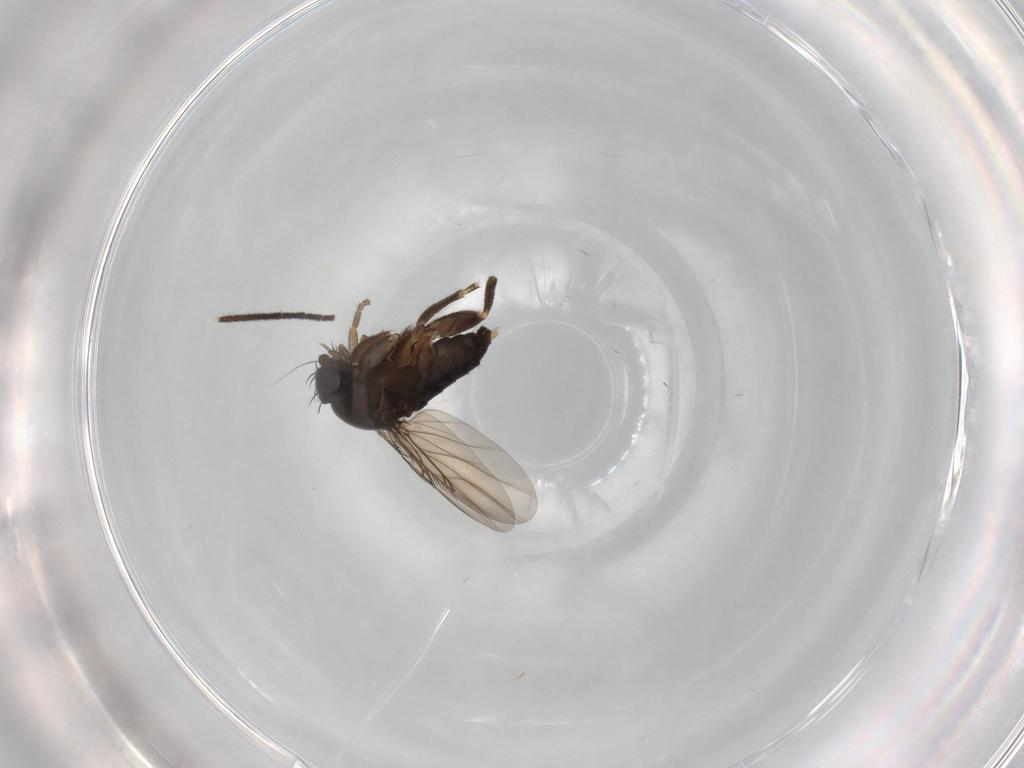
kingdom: Animalia
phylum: Arthropoda
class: Insecta
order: Diptera
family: Phoridae
